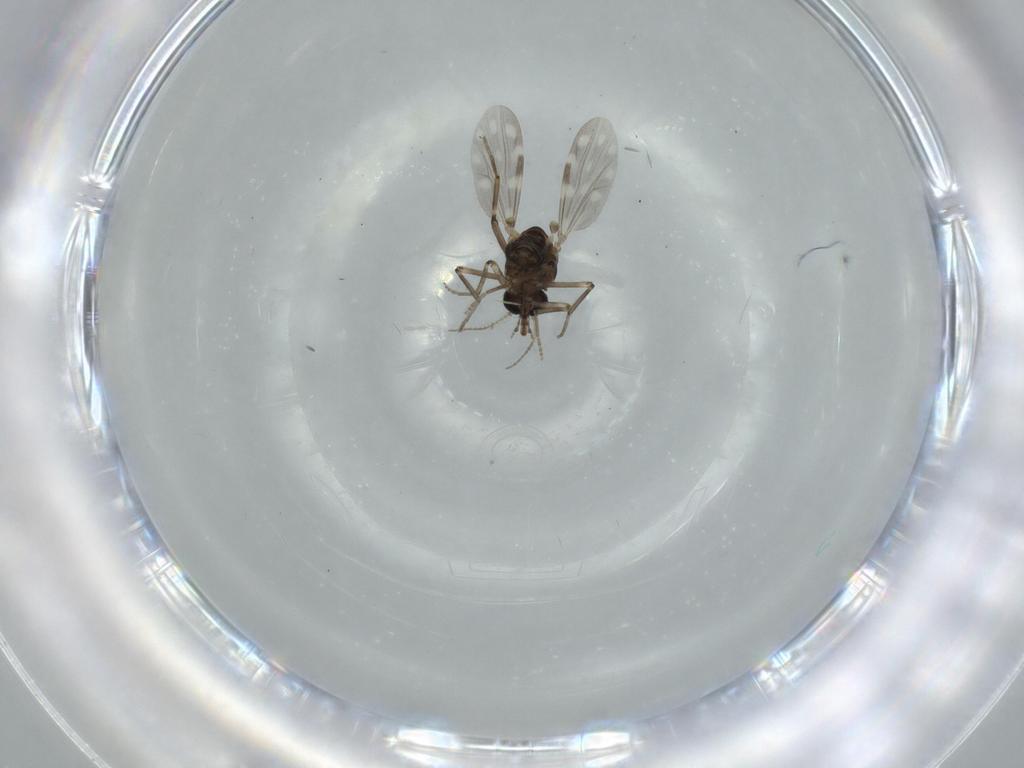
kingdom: Animalia
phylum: Arthropoda
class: Insecta
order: Diptera
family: Ceratopogonidae
